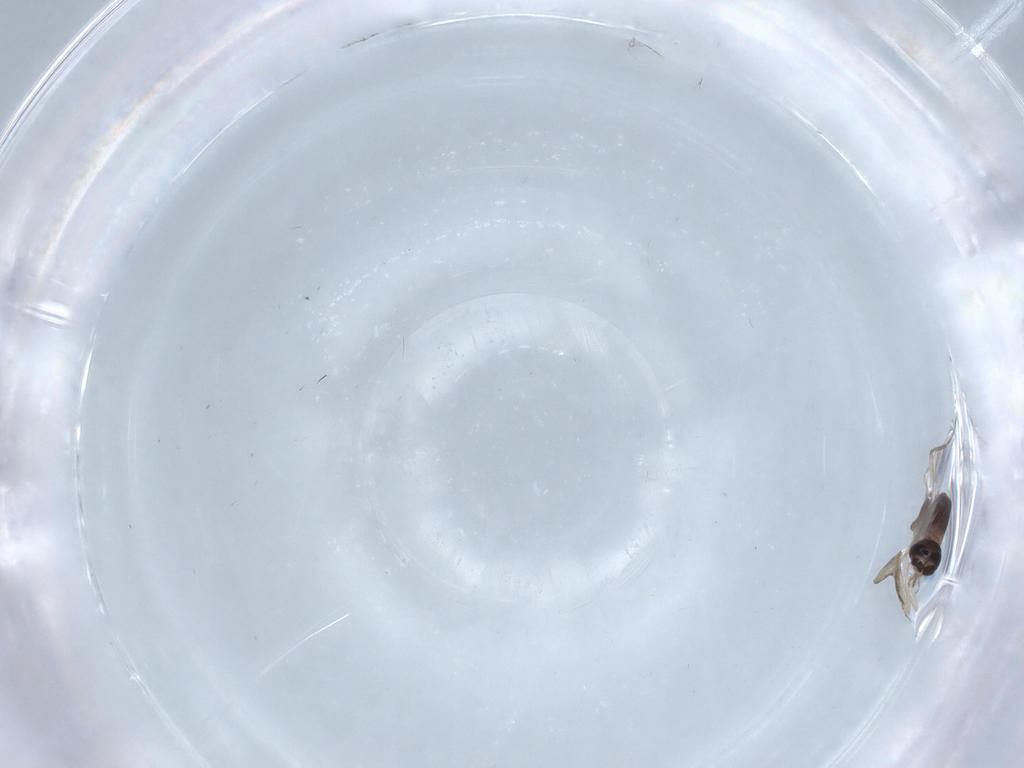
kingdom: Animalia
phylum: Arthropoda
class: Insecta
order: Diptera
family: Ceratopogonidae
